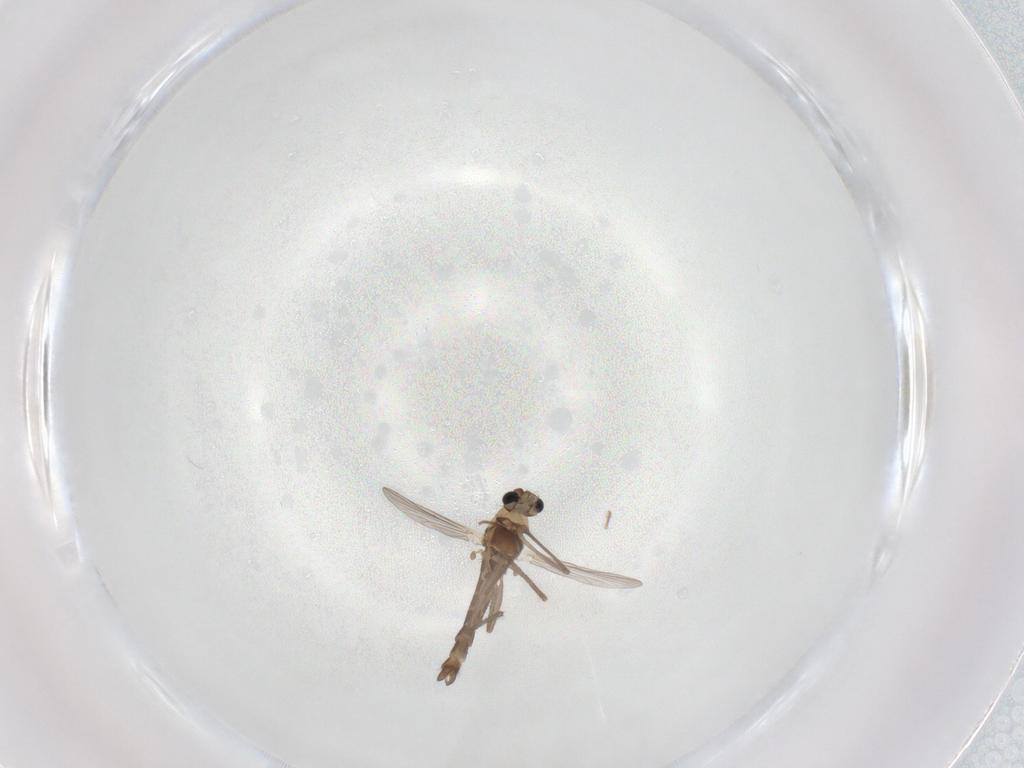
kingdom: Animalia
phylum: Arthropoda
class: Insecta
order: Diptera
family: Chironomidae
